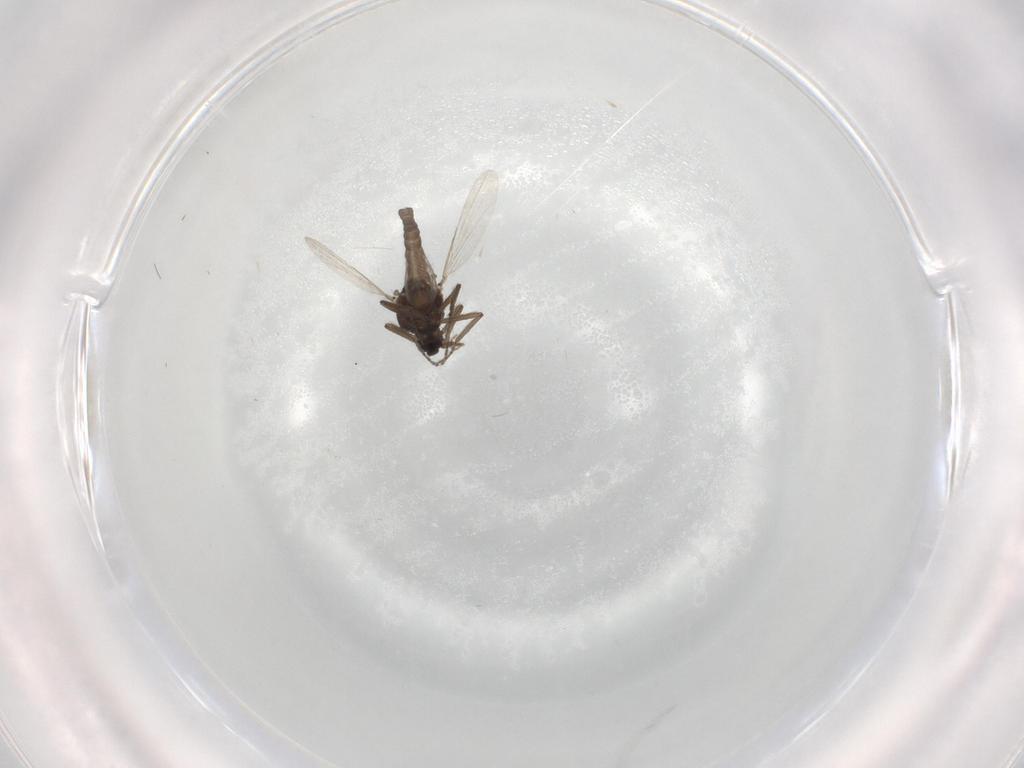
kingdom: Animalia
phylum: Arthropoda
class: Insecta
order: Diptera
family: Ceratopogonidae
